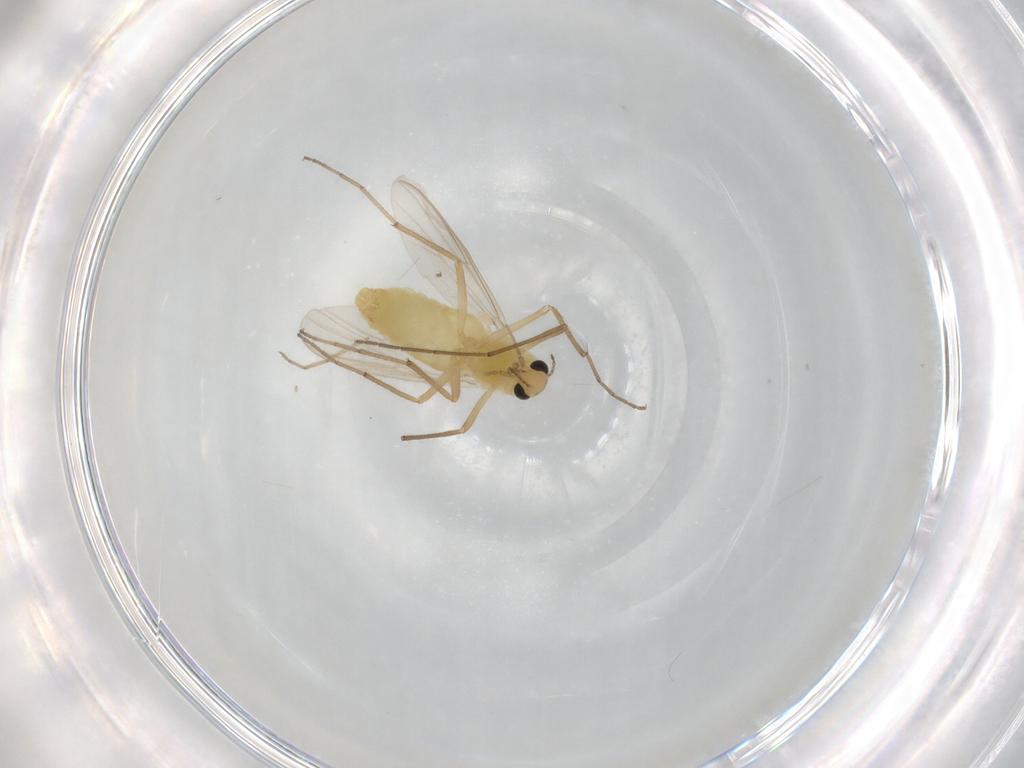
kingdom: Animalia
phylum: Arthropoda
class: Insecta
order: Diptera
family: Chironomidae
